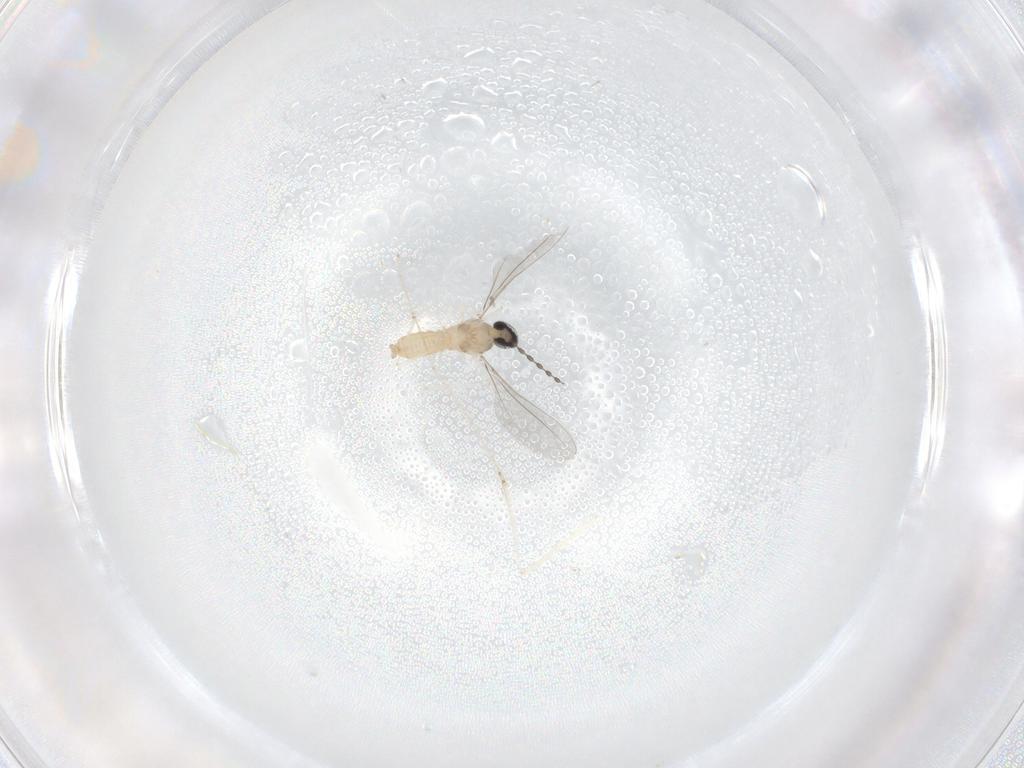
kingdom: Animalia
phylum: Arthropoda
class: Insecta
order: Diptera
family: Cecidomyiidae
